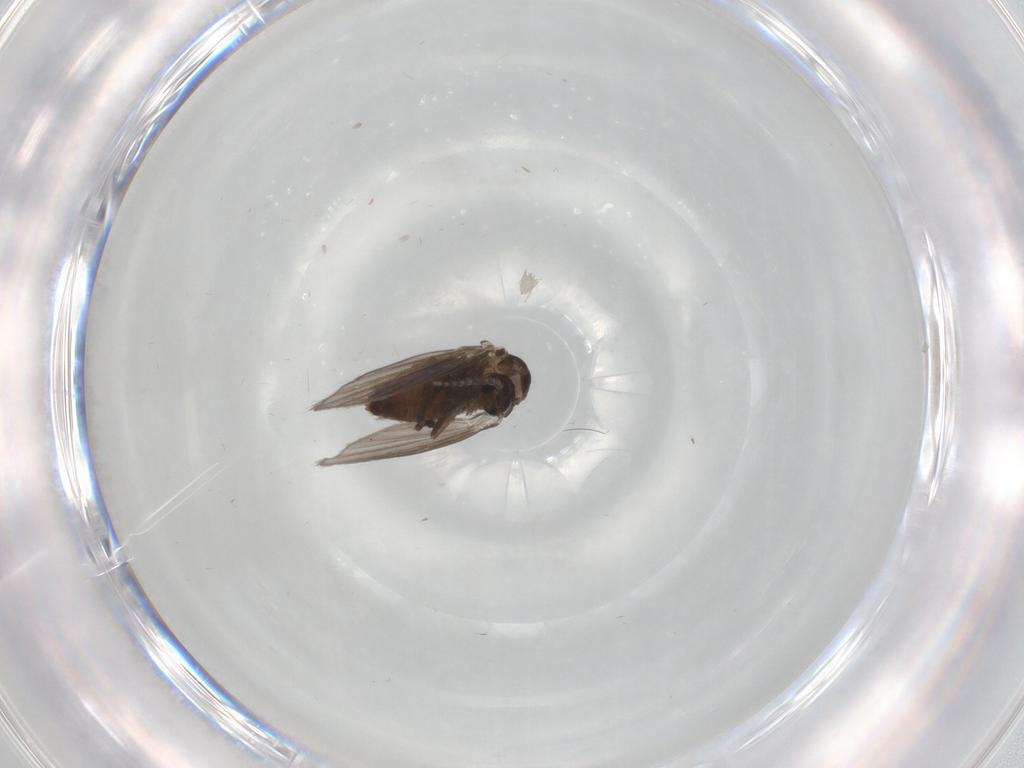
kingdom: Animalia
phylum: Arthropoda
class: Insecta
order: Diptera
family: Psychodidae
